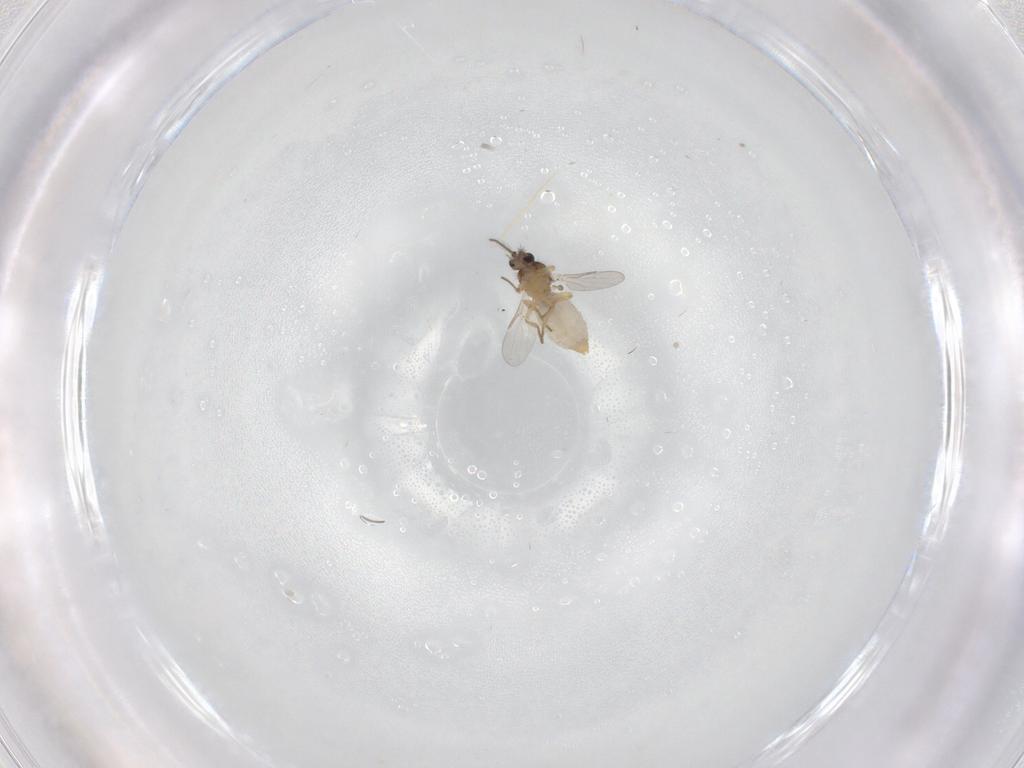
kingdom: Animalia
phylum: Arthropoda
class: Insecta
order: Diptera
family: Ceratopogonidae
